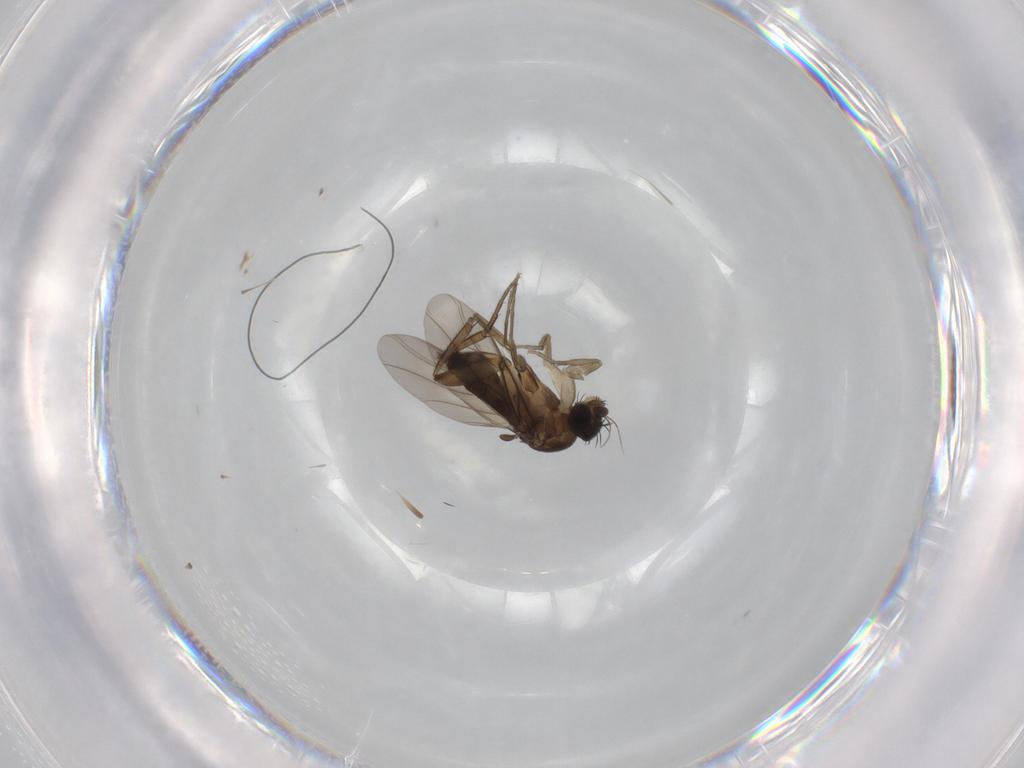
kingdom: Animalia
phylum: Arthropoda
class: Insecta
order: Diptera
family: Phoridae
